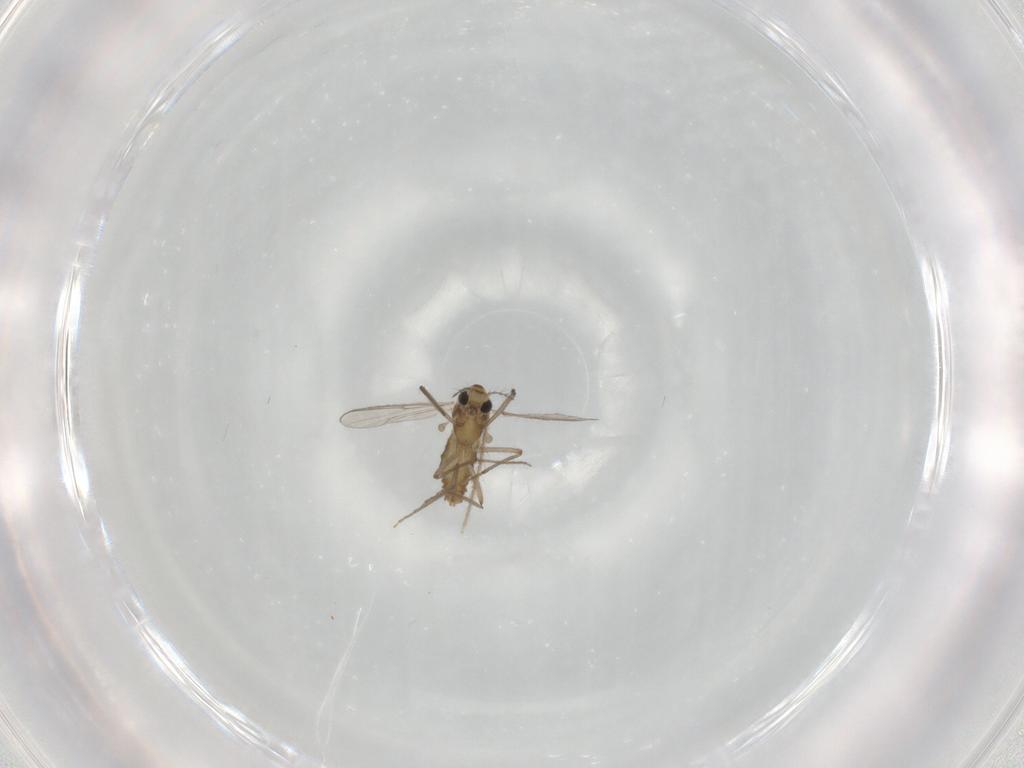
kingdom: Animalia
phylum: Arthropoda
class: Insecta
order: Diptera
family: Chironomidae
